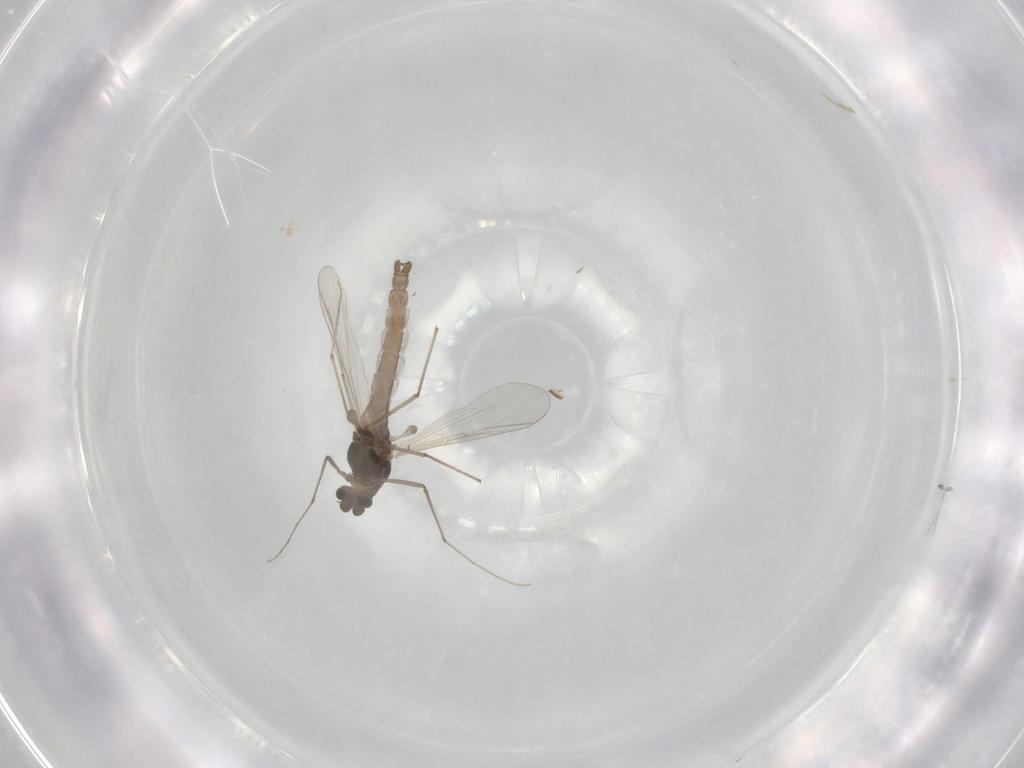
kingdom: Animalia
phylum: Arthropoda
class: Insecta
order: Diptera
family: Chironomidae
